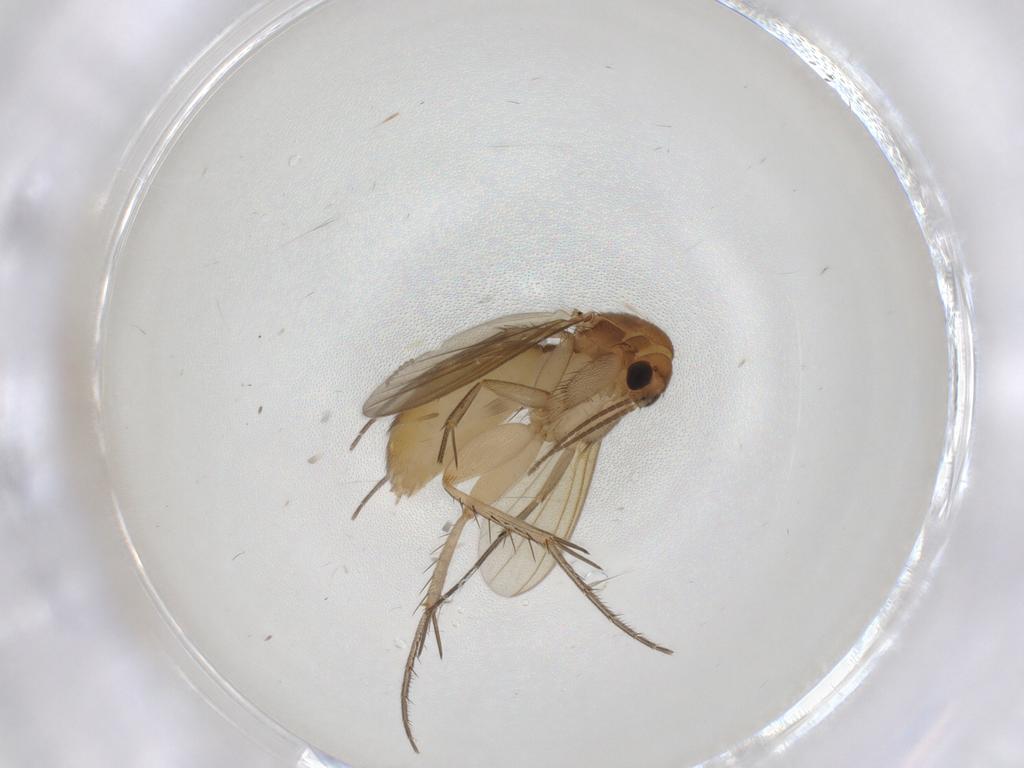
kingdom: Animalia
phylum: Arthropoda
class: Insecta
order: Diptera
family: Mycetophilidae
